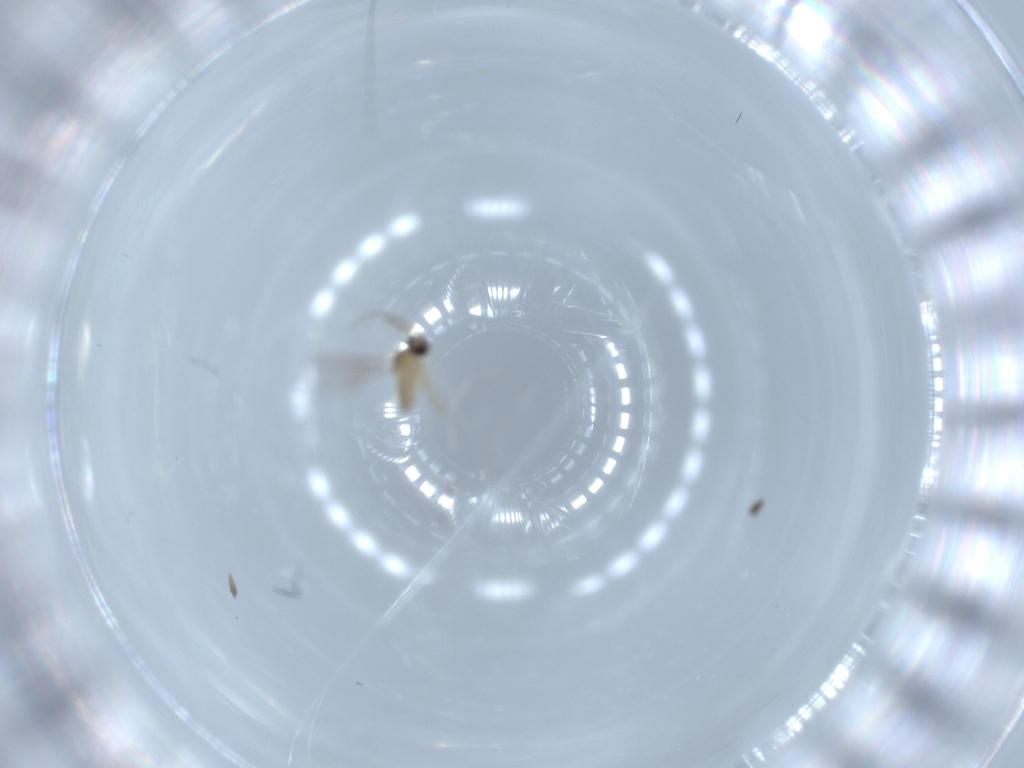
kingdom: Animalia
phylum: Arthropoda
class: Insecta
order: Diptera
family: Cecidomyiidae
